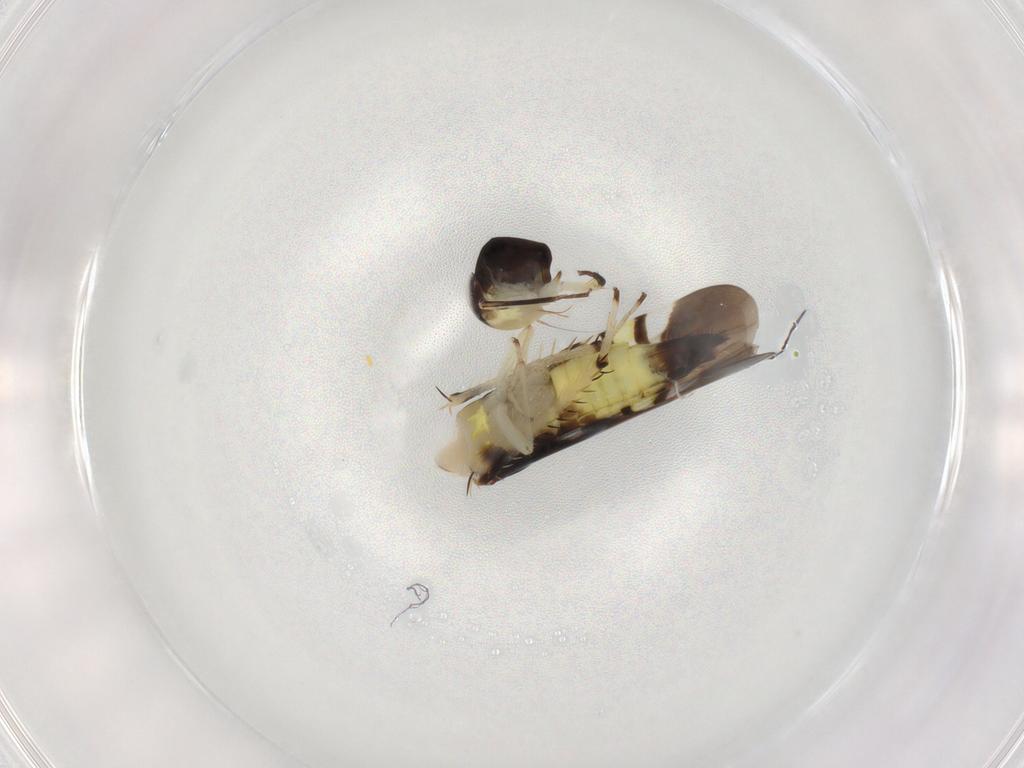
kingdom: Animalia
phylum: Arthropoda
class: Insecta
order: Hemiptera
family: Cicadellidae
